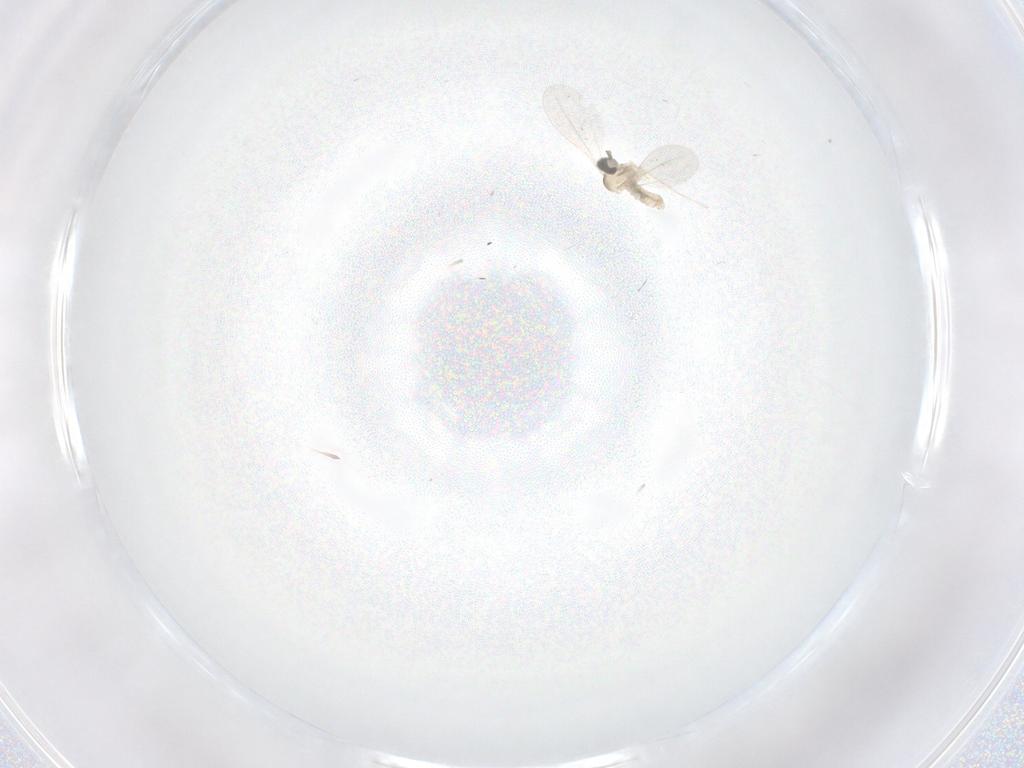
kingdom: Animalia
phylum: Arthropoda
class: Insecta
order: Diptera
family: Cecidomyiidae
